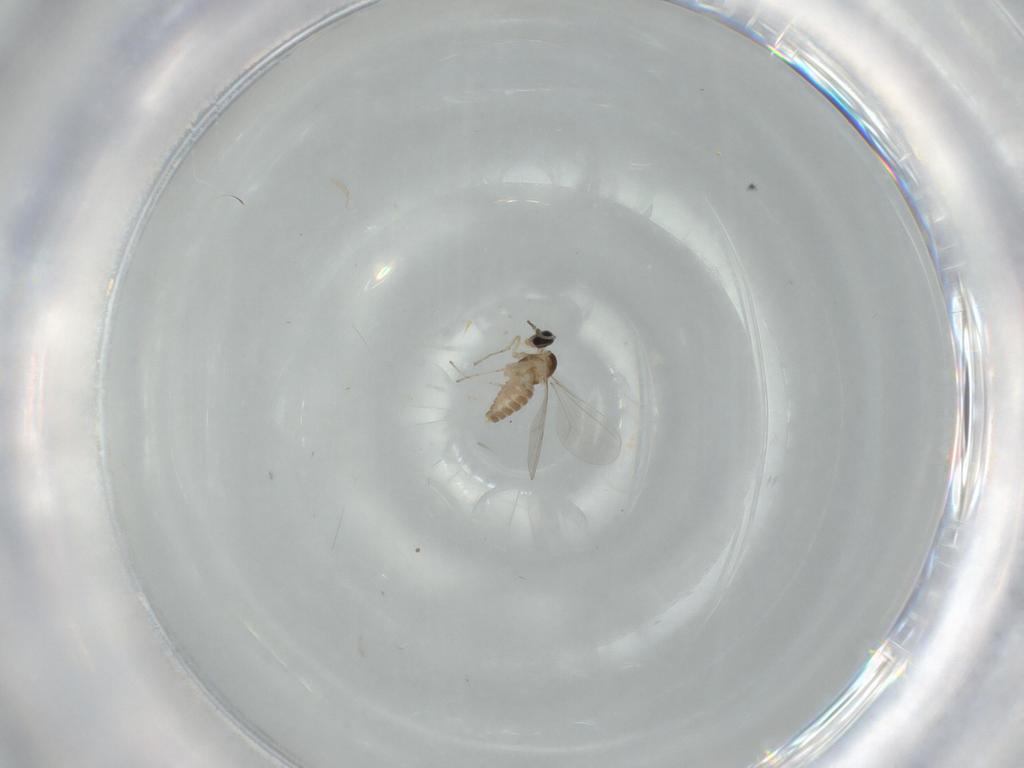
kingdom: Animalia
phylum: Arthropoda
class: Insecta
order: Diptera
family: Cecidomyiidae
